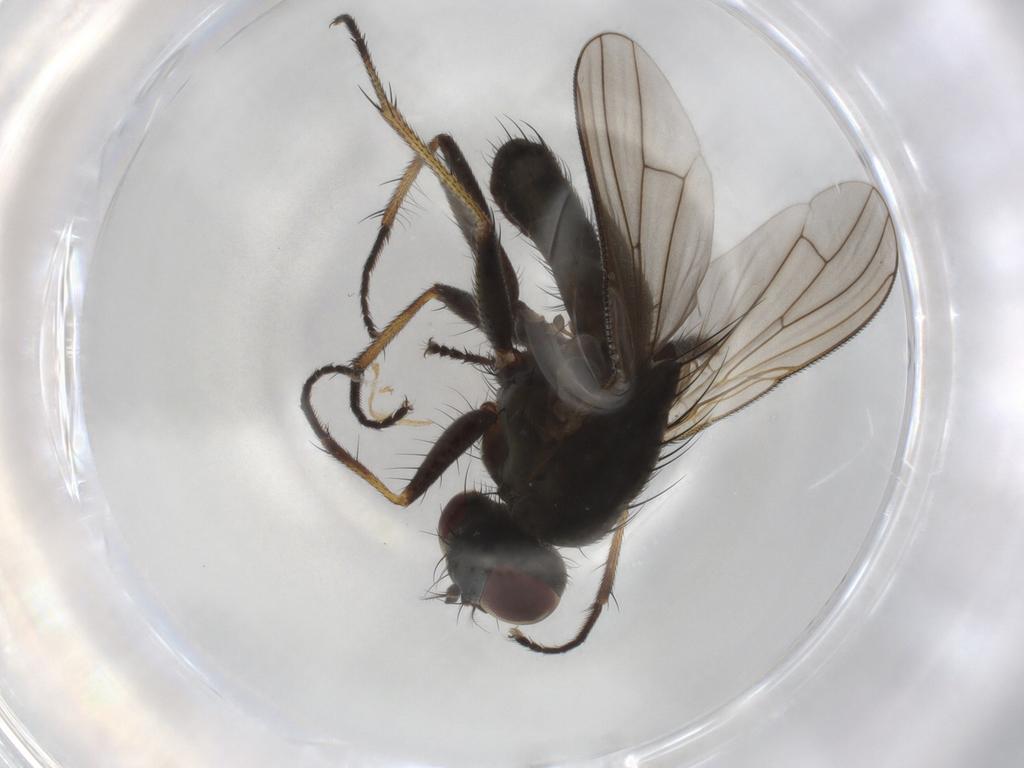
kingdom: Animalia
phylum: Arthropoda
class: Insecta
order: Diptera
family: Muscidae
